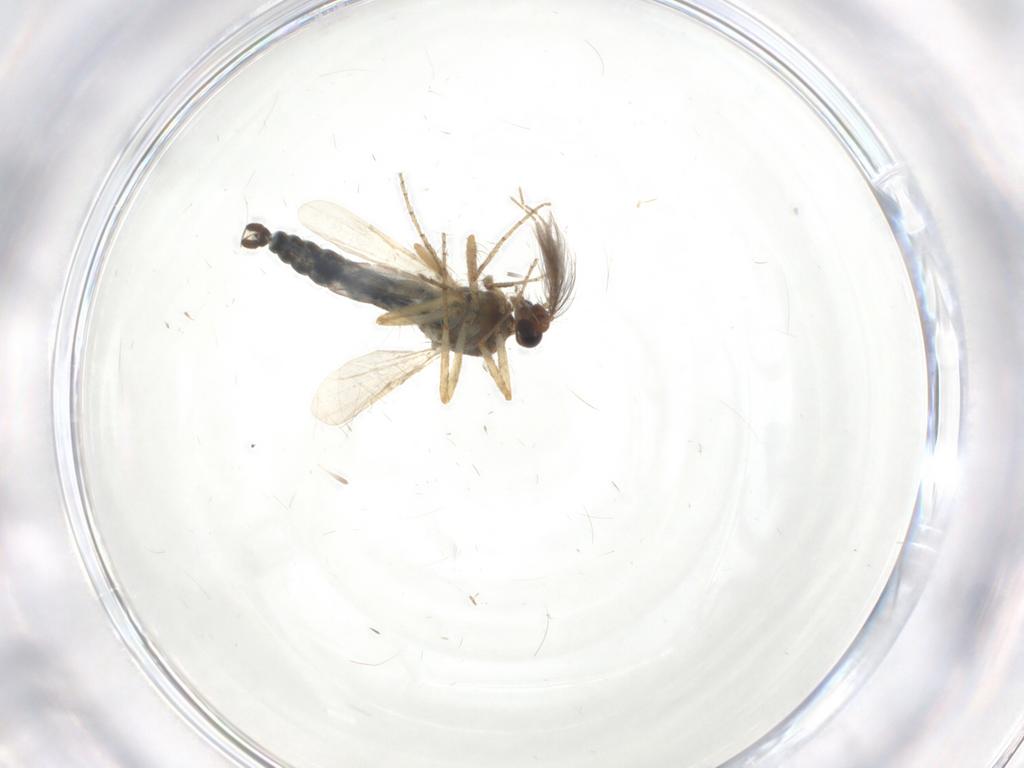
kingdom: Animalia
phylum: Arthropoda
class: Insecta
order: Diptera
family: Ceratopogonidae
